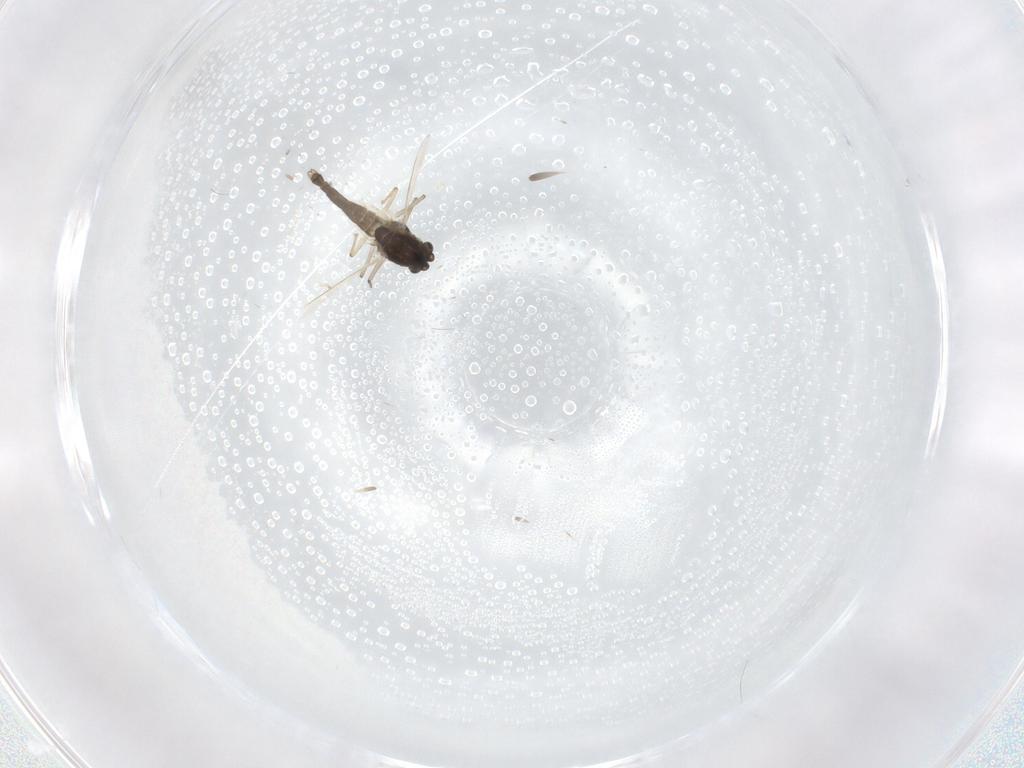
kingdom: Animalia
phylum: Arthropoda
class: Insecta
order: Diptera
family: Chironomidae
